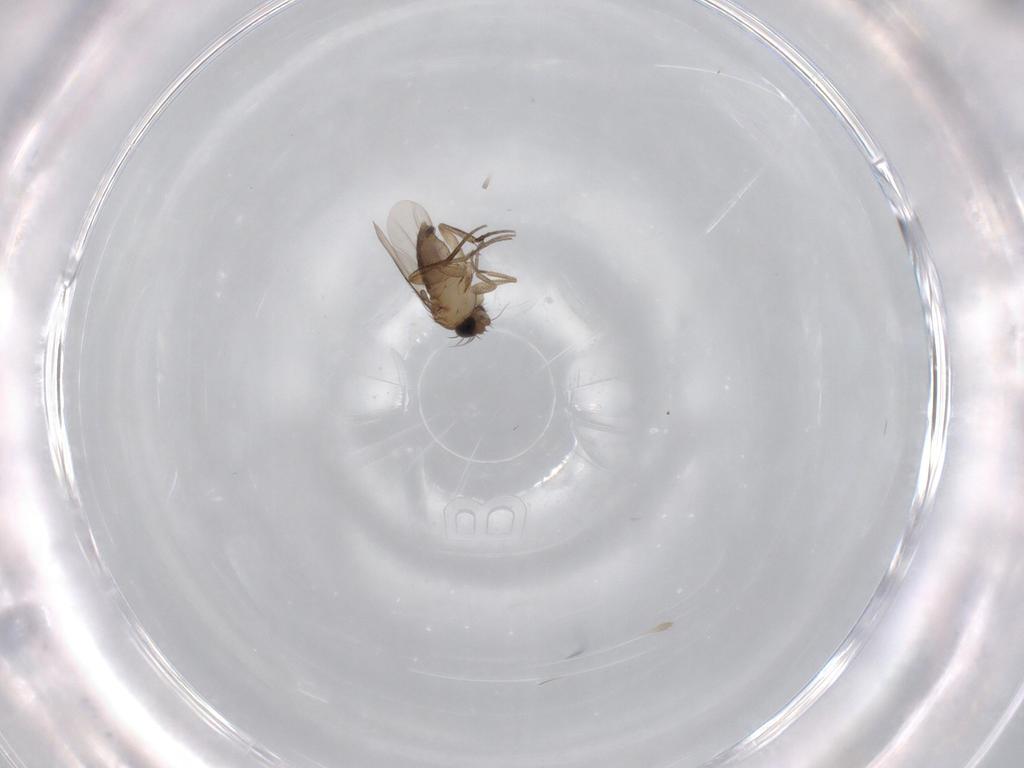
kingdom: Animalia
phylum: Arthropoda
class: Insecta
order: Diptera
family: Phoridae
